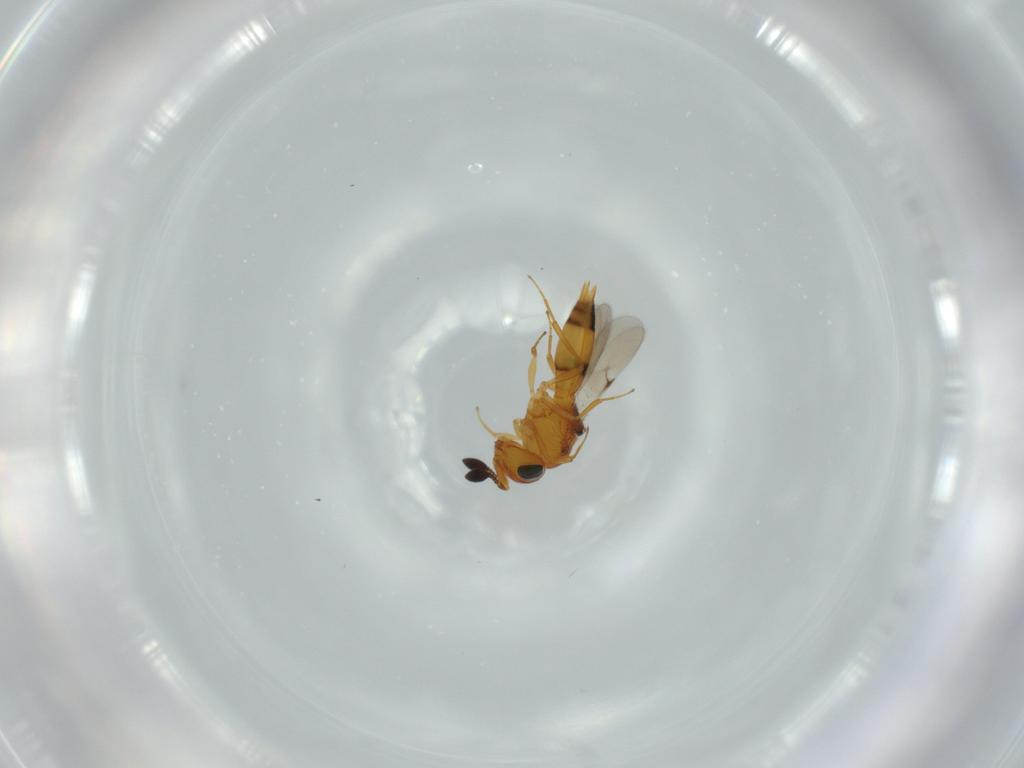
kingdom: Animalia
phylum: Arthropoda
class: Insecta
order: Hymenoptera
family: Scelionidae
